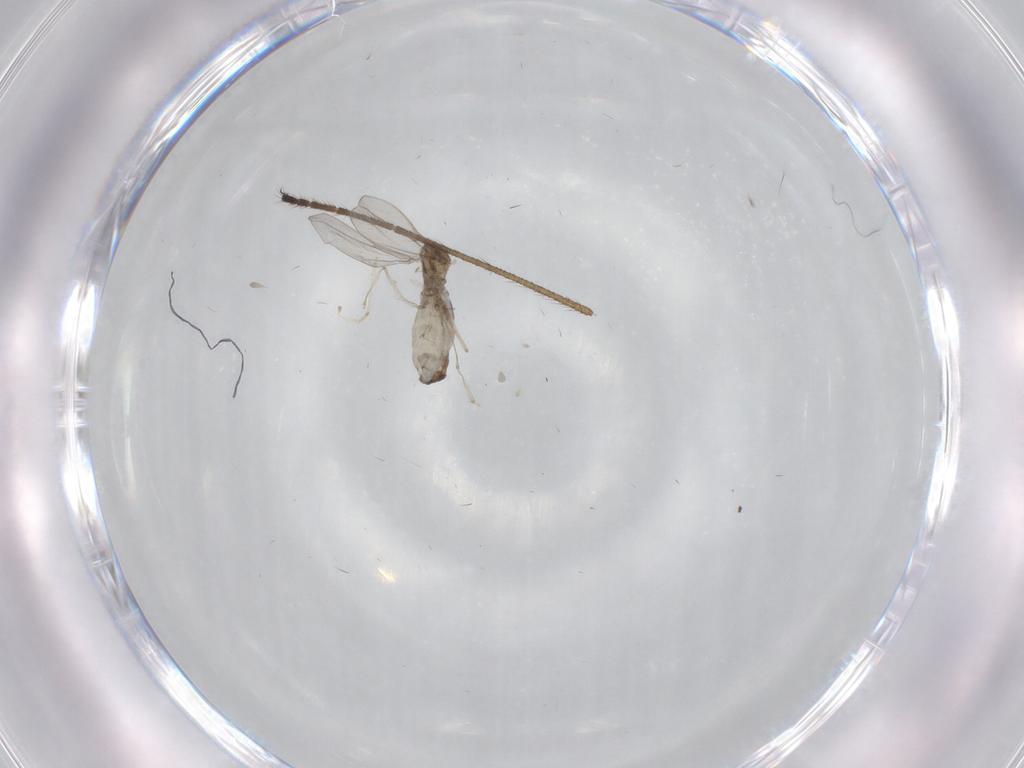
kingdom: Animalia
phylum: Arthropoda
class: Insecta
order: Diptera
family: Cecidomyiidae
